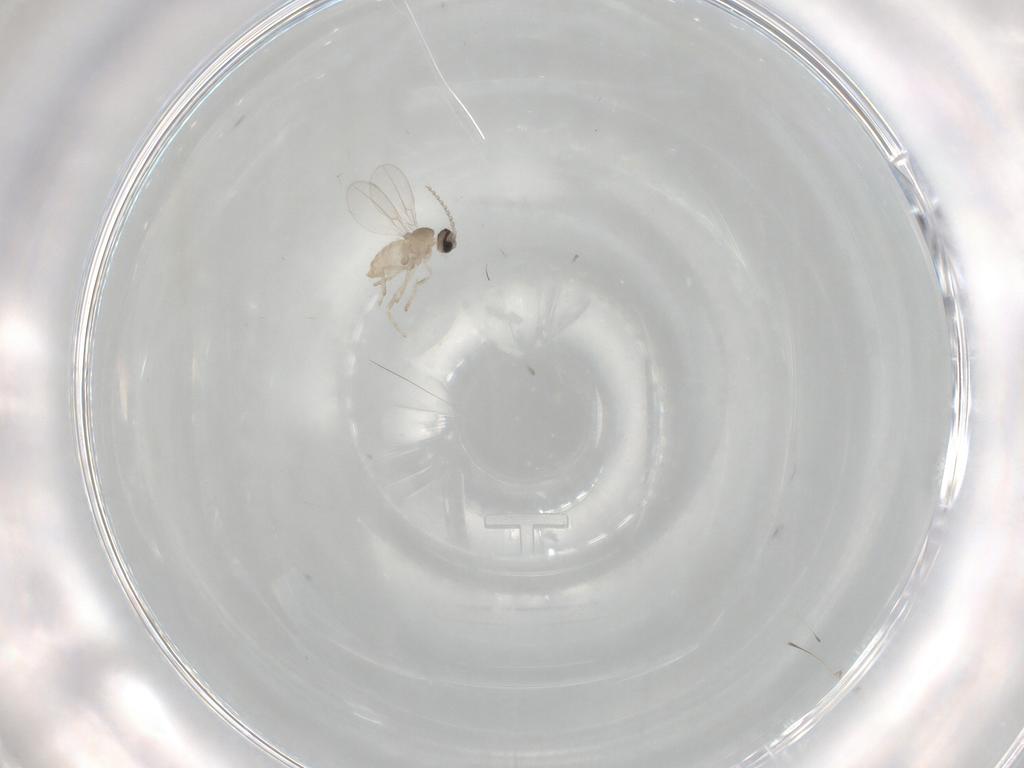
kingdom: Animalia
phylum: Arthropoda
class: Insecta
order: Diptera
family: Cecidomyiidae
